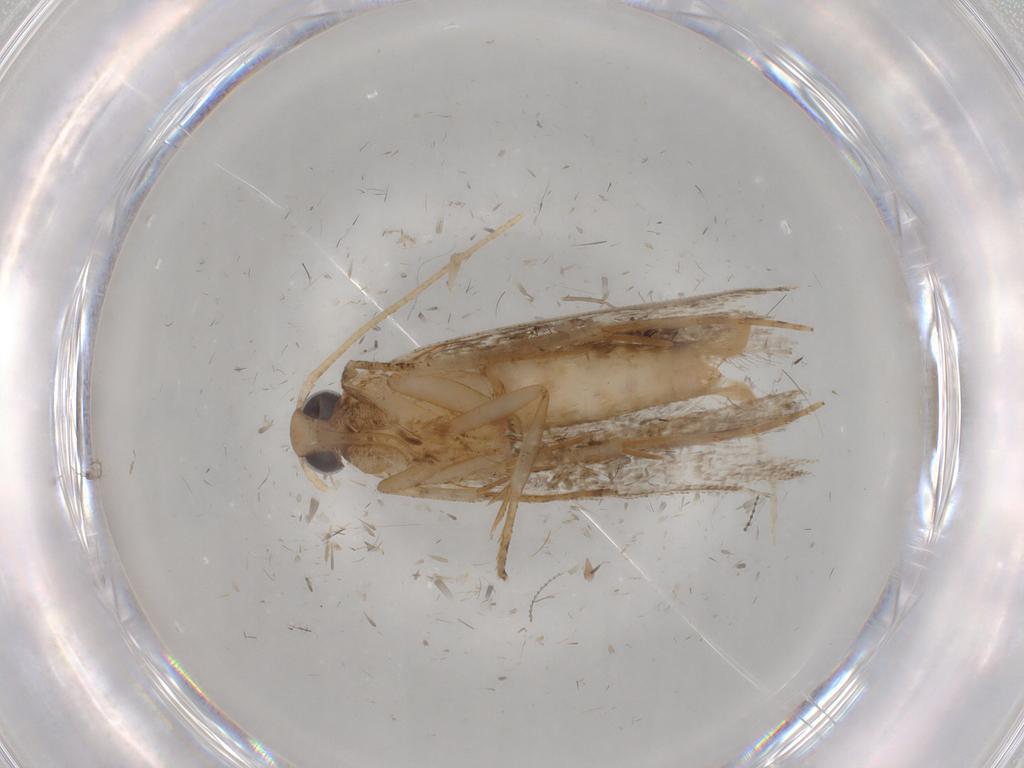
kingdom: Animalia
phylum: Arthropoda
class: Insecta
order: Lepidoptera
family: Gelechiidae
